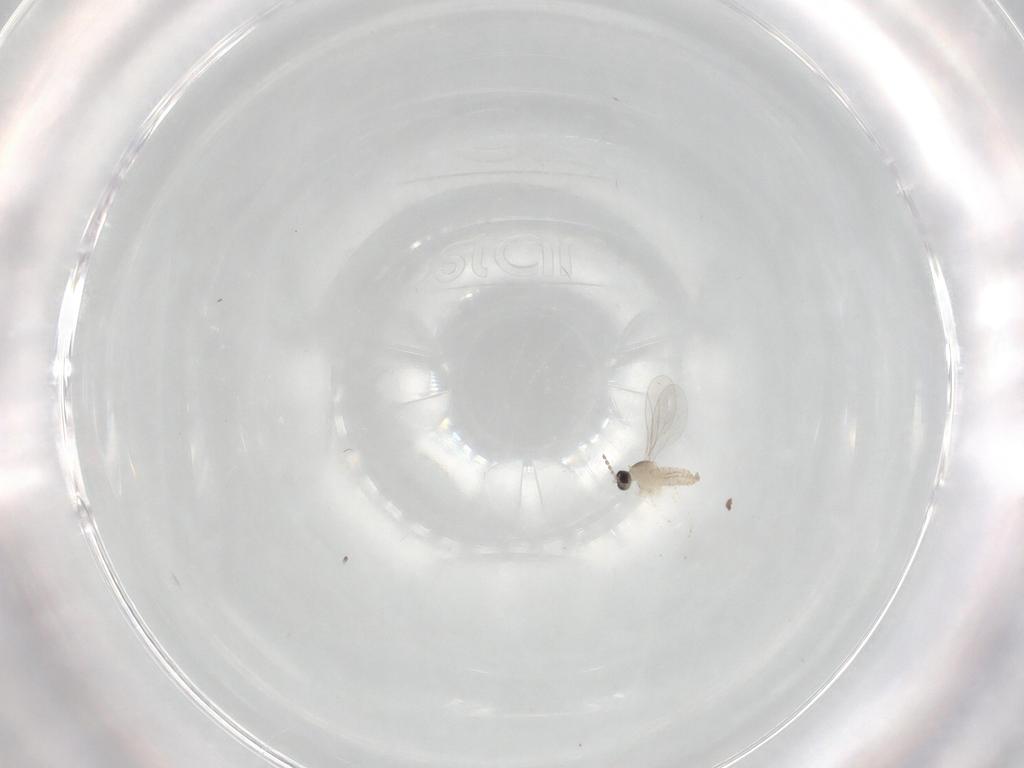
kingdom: Animalia
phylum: Arthropoda
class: Insecta
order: Diptera
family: Cecidomyiidae
